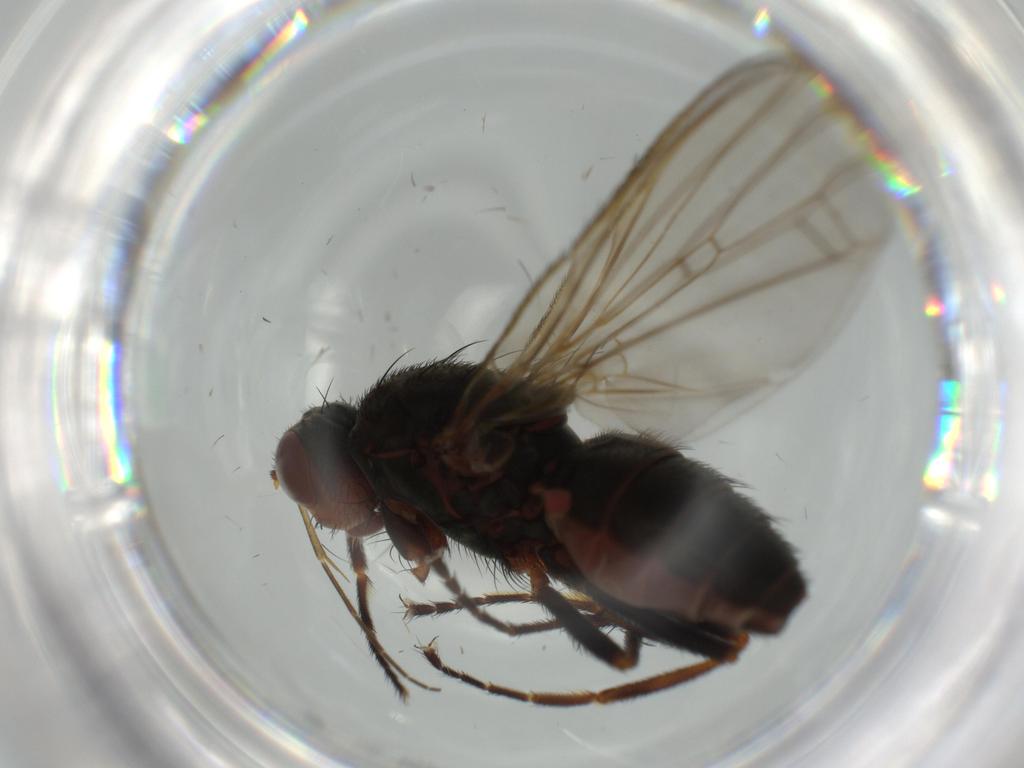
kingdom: Animalia
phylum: Arthropoda
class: Insecta
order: Diptera
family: Heleomyzidae
